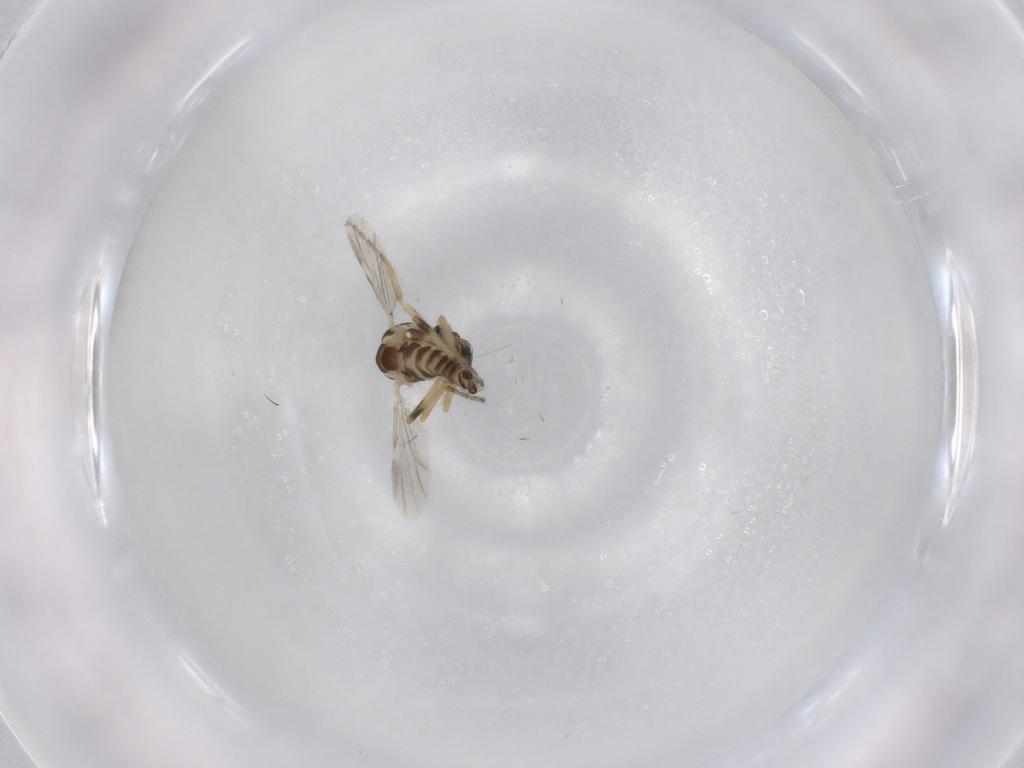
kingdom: Animalia
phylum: Arthropoda
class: Insecta
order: Diptera
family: Ceratopogonidae
